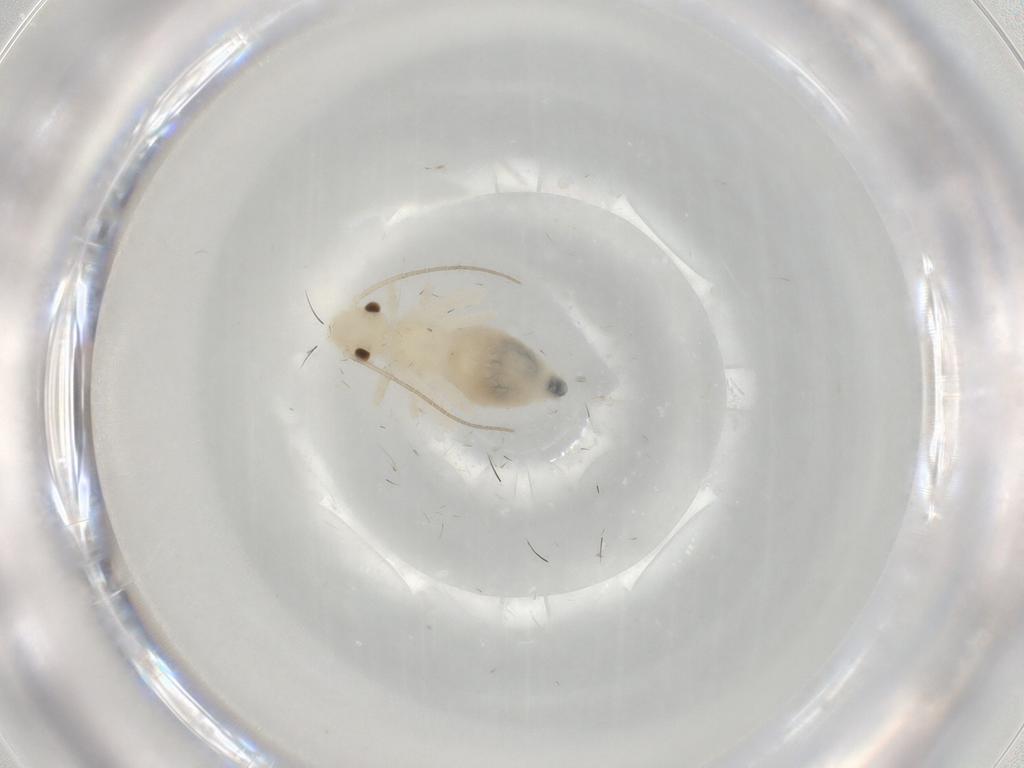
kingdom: Animalia
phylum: Arthropoda
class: Insecta
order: Psocodea
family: Caeciliusidae
